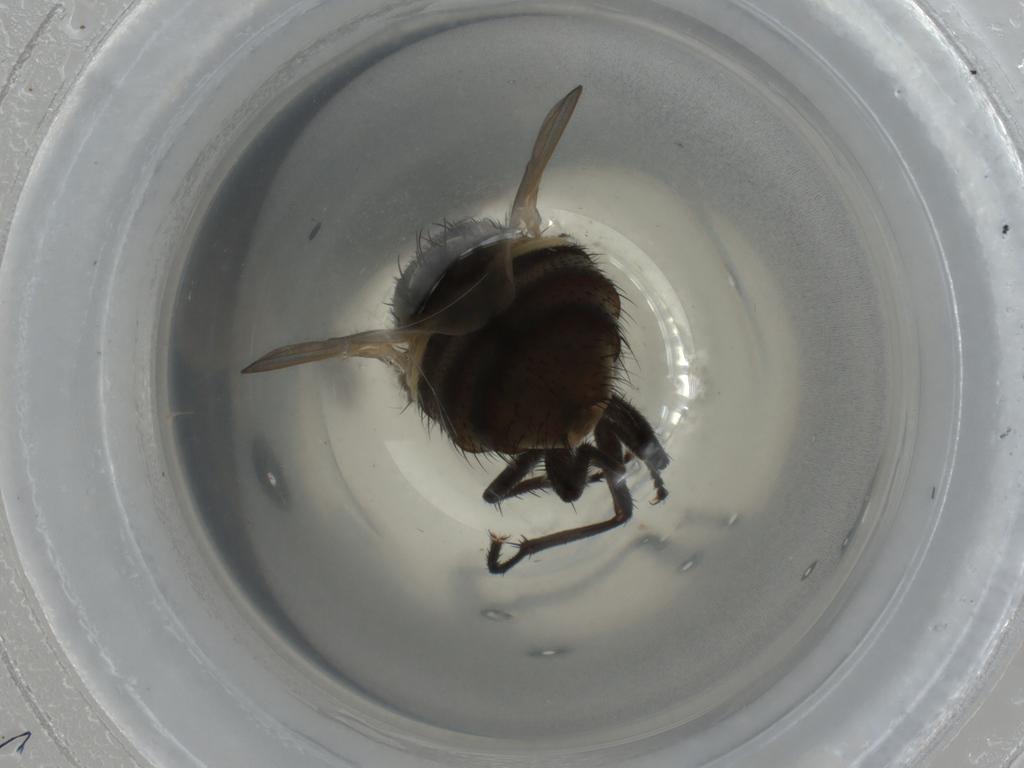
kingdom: Animalia
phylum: Arthropoda
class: Insecta
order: Diptera
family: Muscidae
